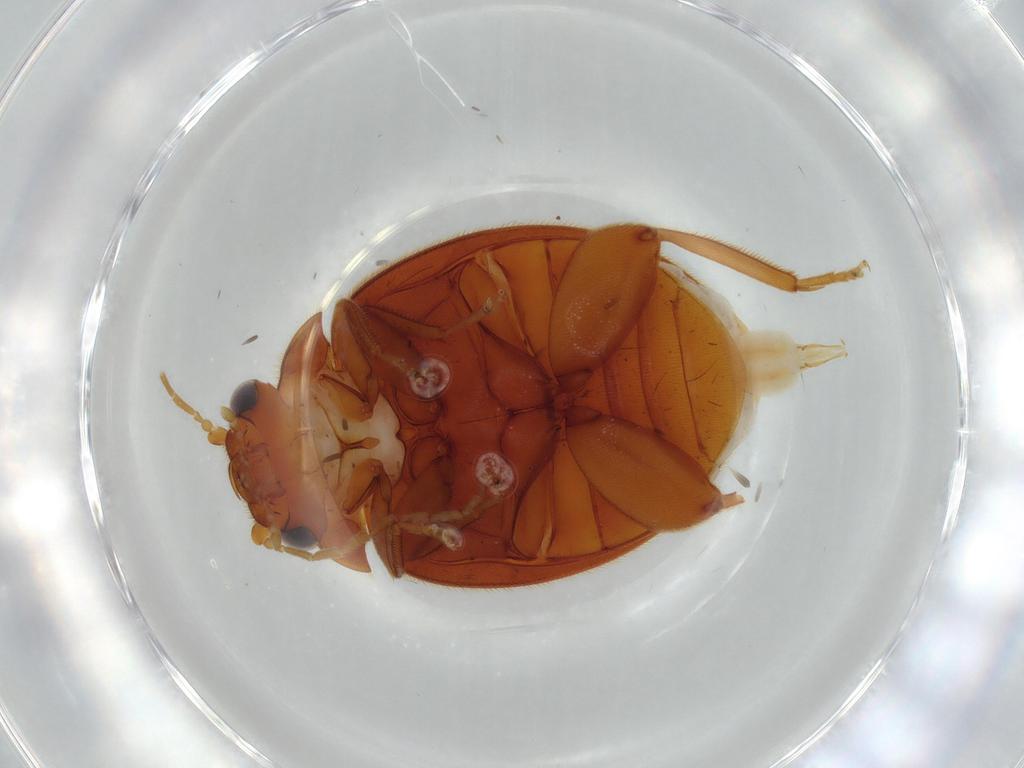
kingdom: Animalia
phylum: Arthropoda
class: Insecta
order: Coleoptera
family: Scirtidae
